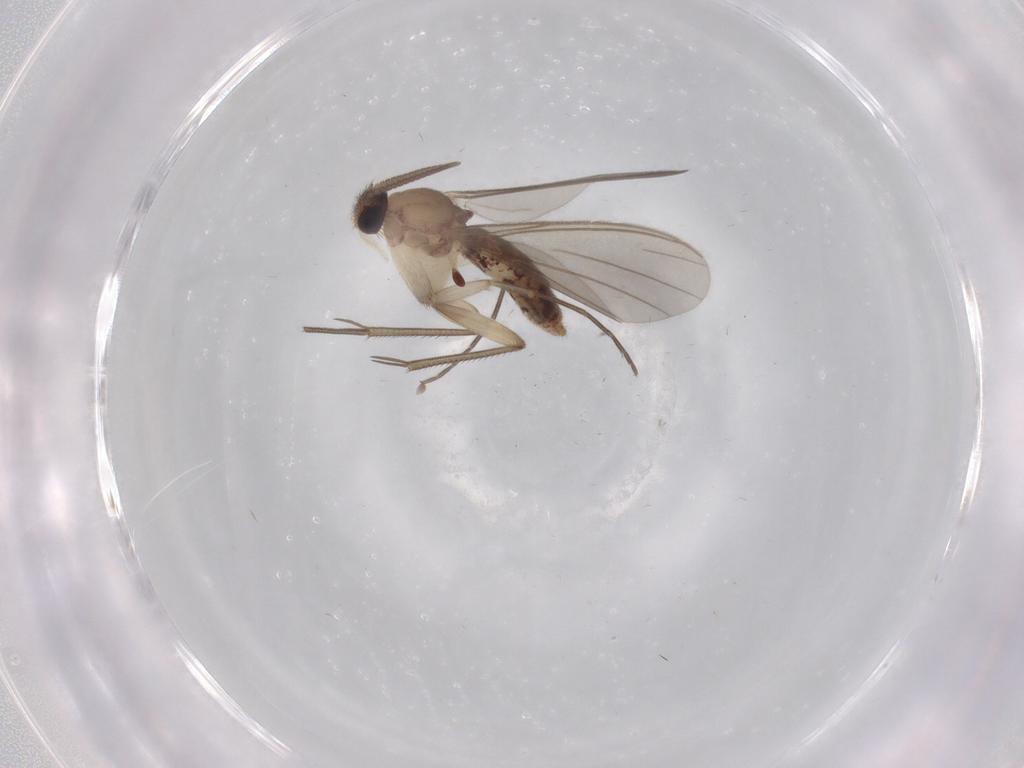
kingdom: Animalia
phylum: Arthropoda
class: Insecta
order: Diptera
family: Mycetophilidae
